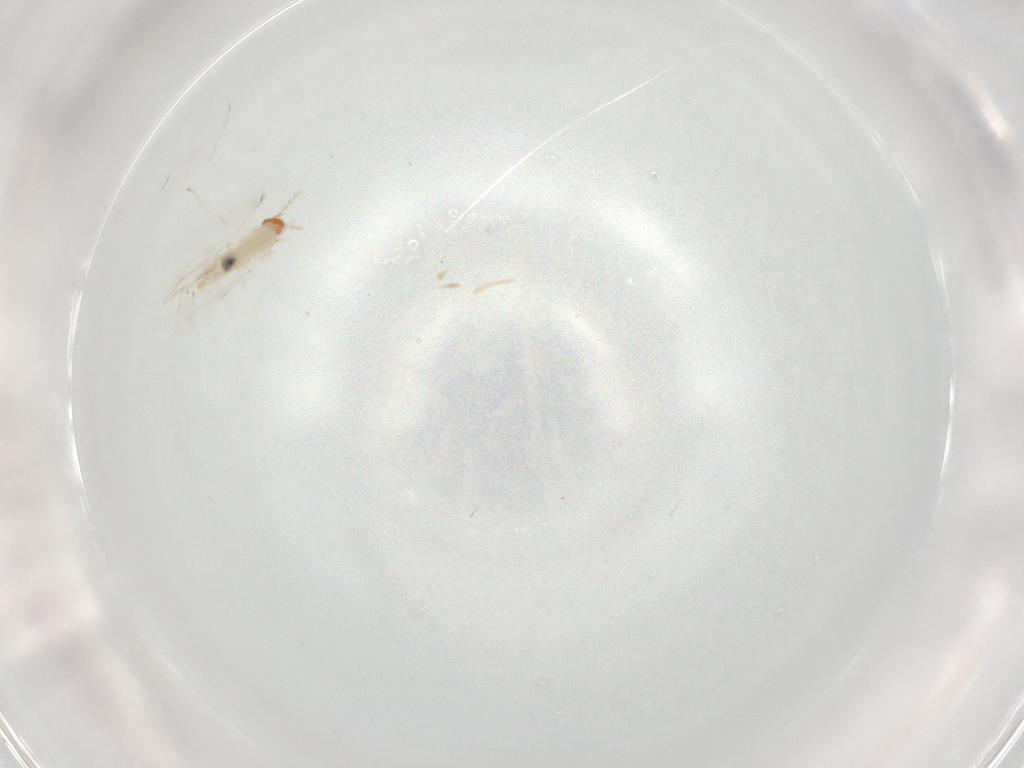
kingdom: Animalia
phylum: Arthropoda
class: Insecta
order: Diptera
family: Cecidomyiidae
